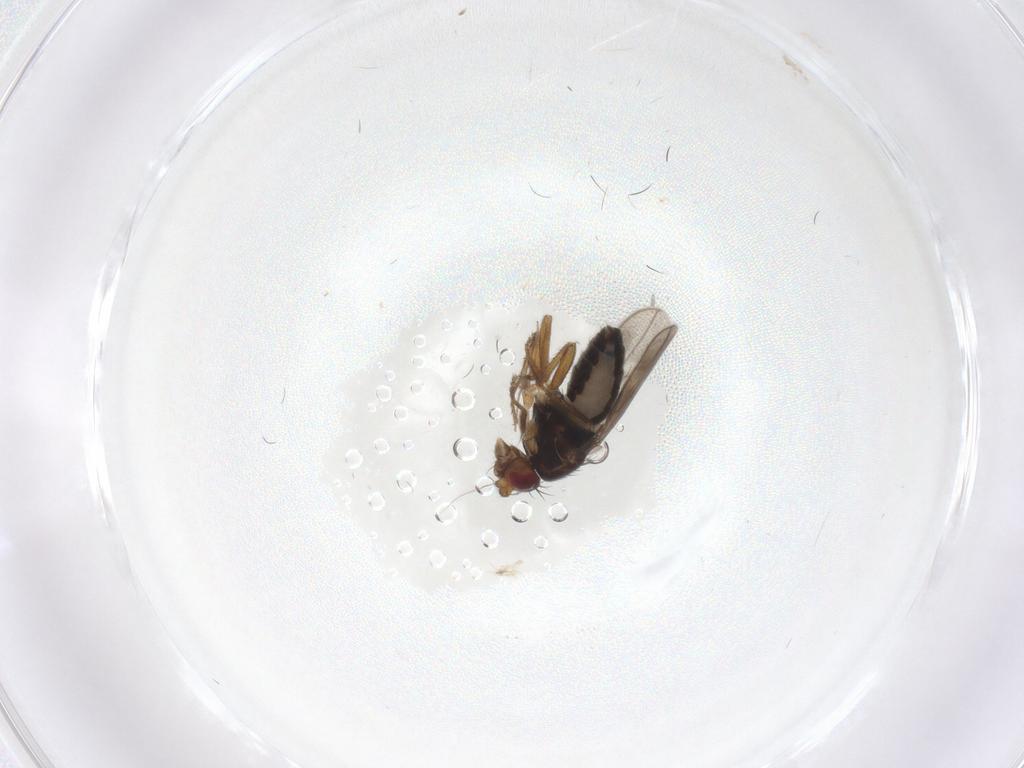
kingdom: Animalia
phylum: Arthropoda
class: Insecta
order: Diptera
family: Sphaeroceridae
